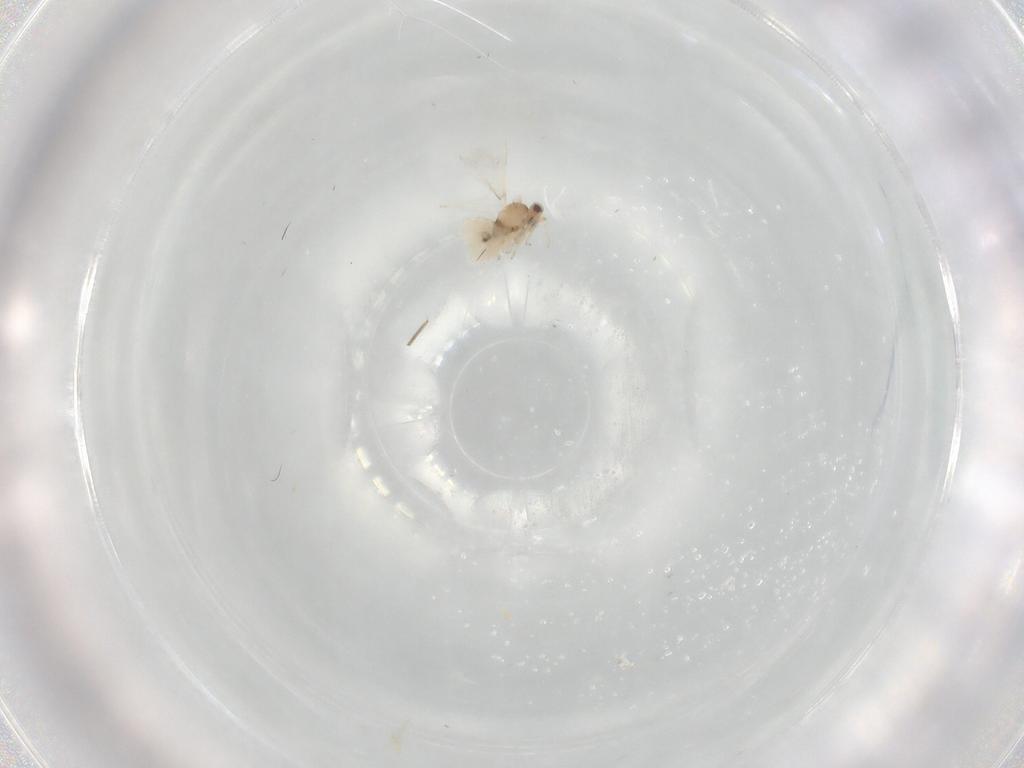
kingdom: Animalia
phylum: Arthropoda
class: Insecta
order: Diptera
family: Cecidomyiidae
